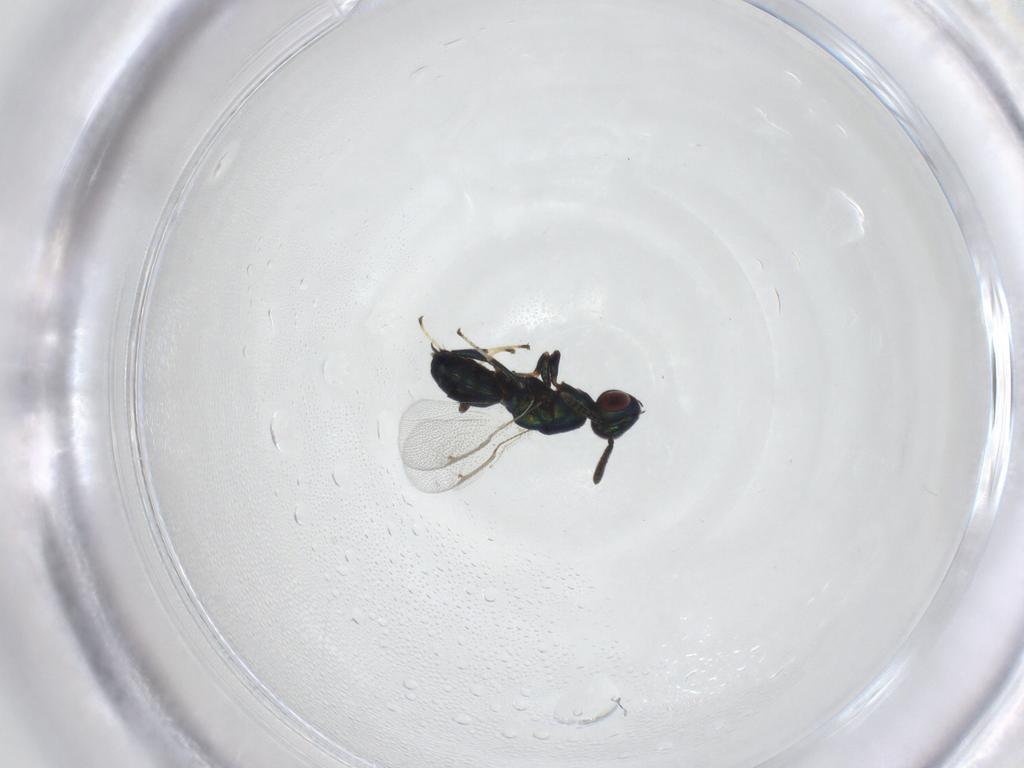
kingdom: Animalia
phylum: Arthropoda
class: Insecta
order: Hymenoptera
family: Torymidae
